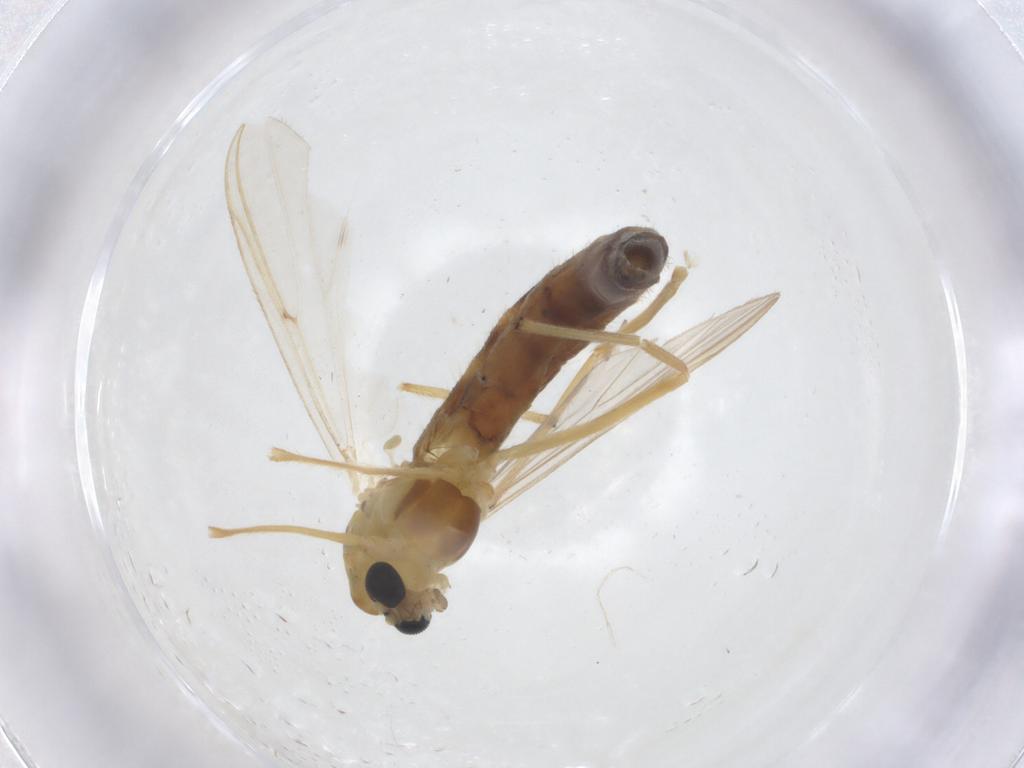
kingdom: Animalia
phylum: Arthropoda
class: Insecta
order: Diptera
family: Chironomidae
